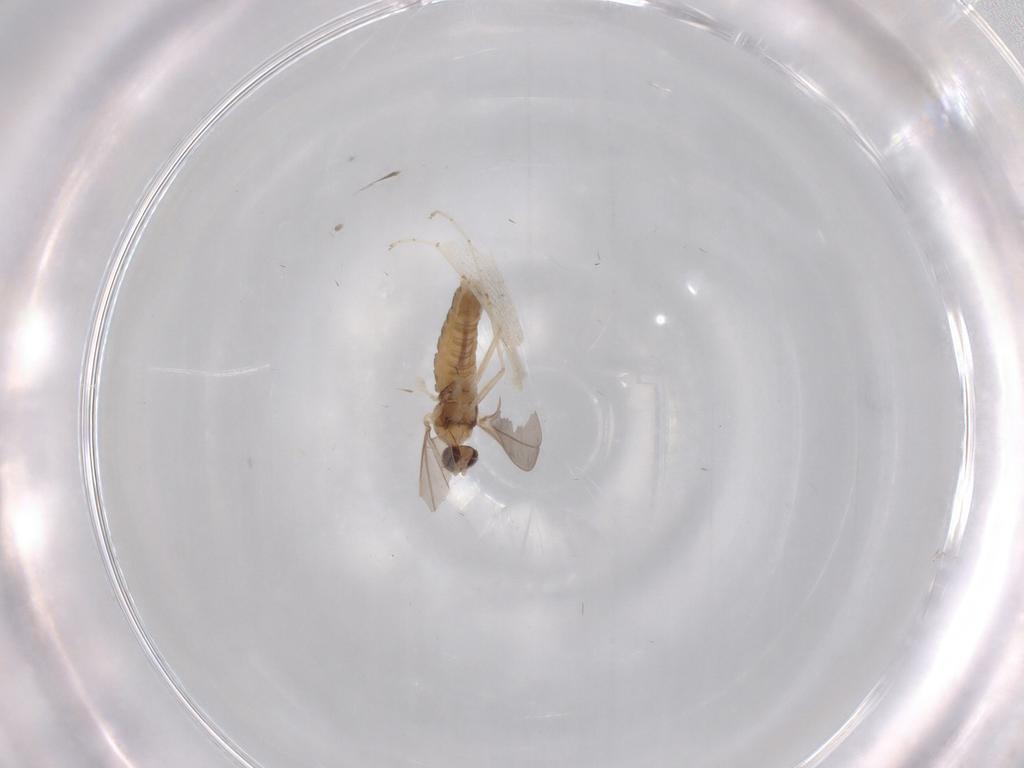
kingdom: Animalia
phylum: Arthropoda
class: Insecta
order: Diptera
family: Cecidomyiidae
